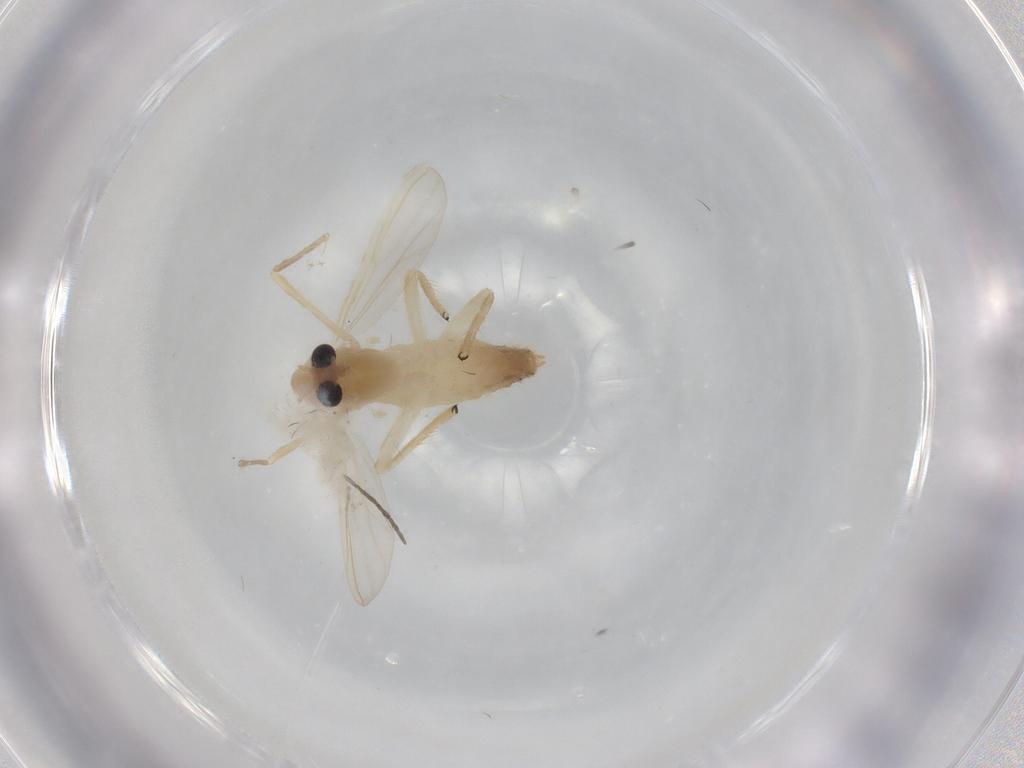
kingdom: Animalia
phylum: Arthropoda
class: Insecta
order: Diptera
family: Chironomidae
